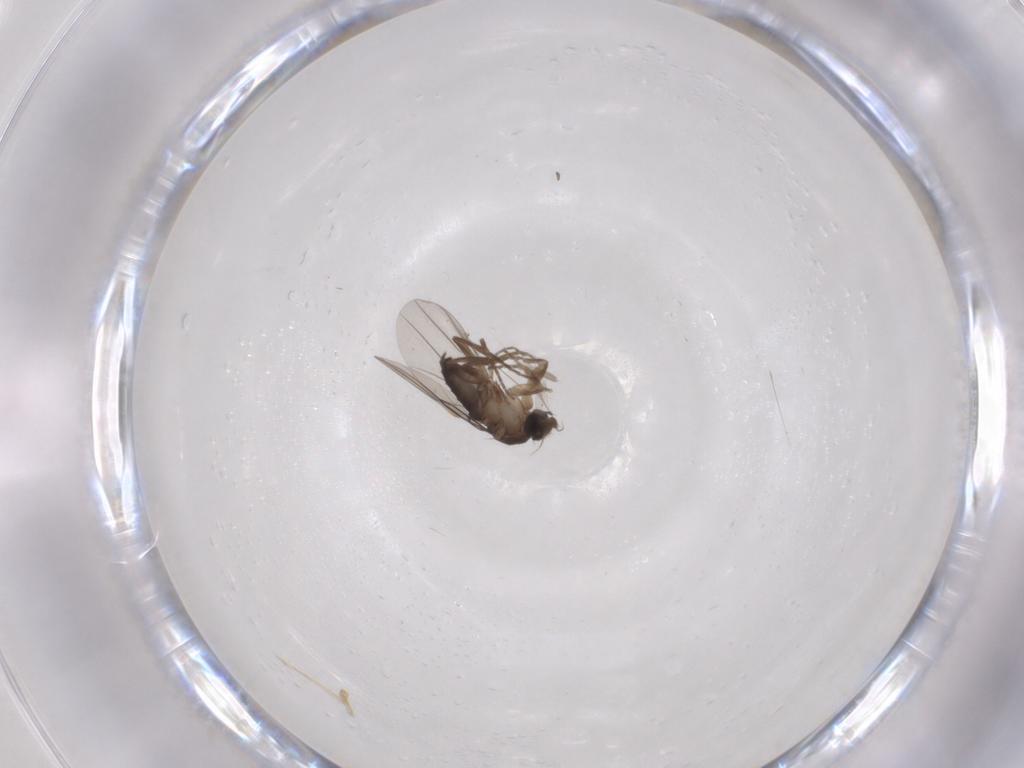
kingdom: Animalia
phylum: Arthropoda
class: Insecta
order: Diptera
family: Phoridae
